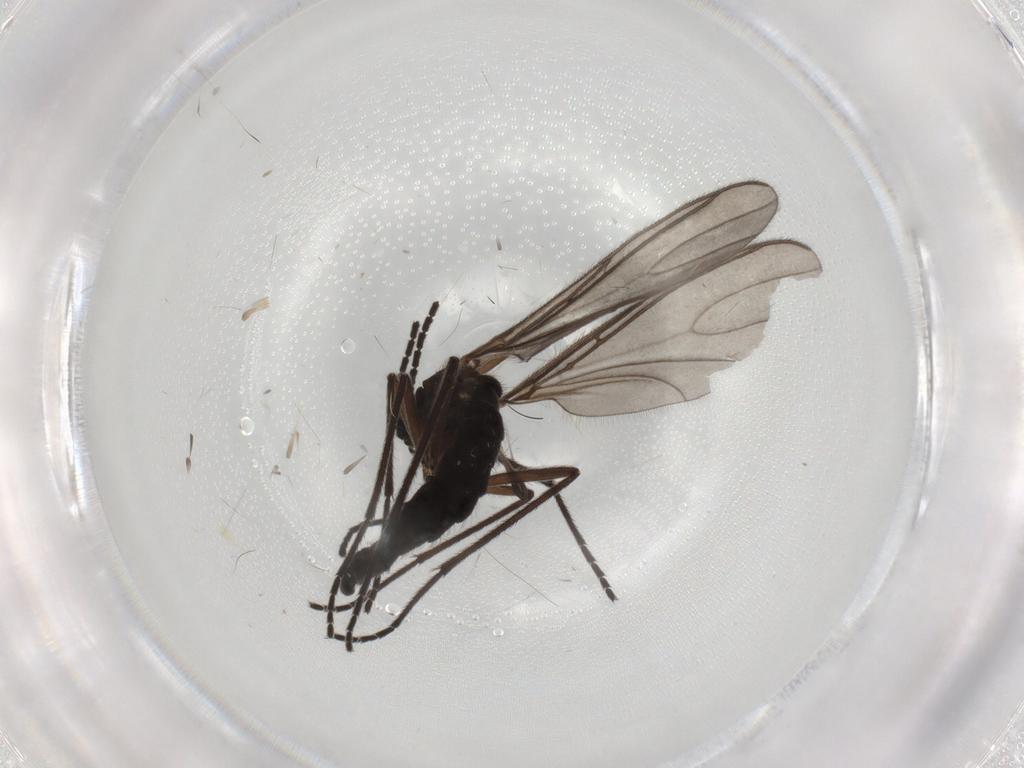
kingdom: Animalia
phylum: Arthropoda
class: Insecta
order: Diptera
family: Sciaridae
